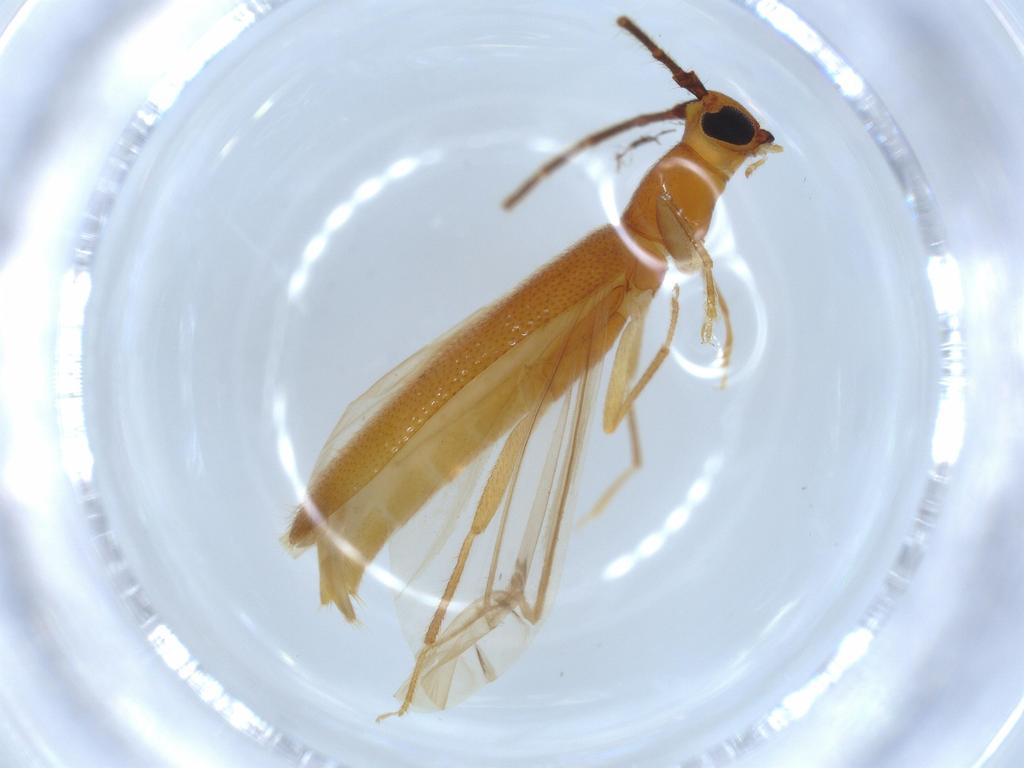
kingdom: Animalia
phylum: Arthropoda
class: Insecta
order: Coleoptera
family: Cerambycidae
